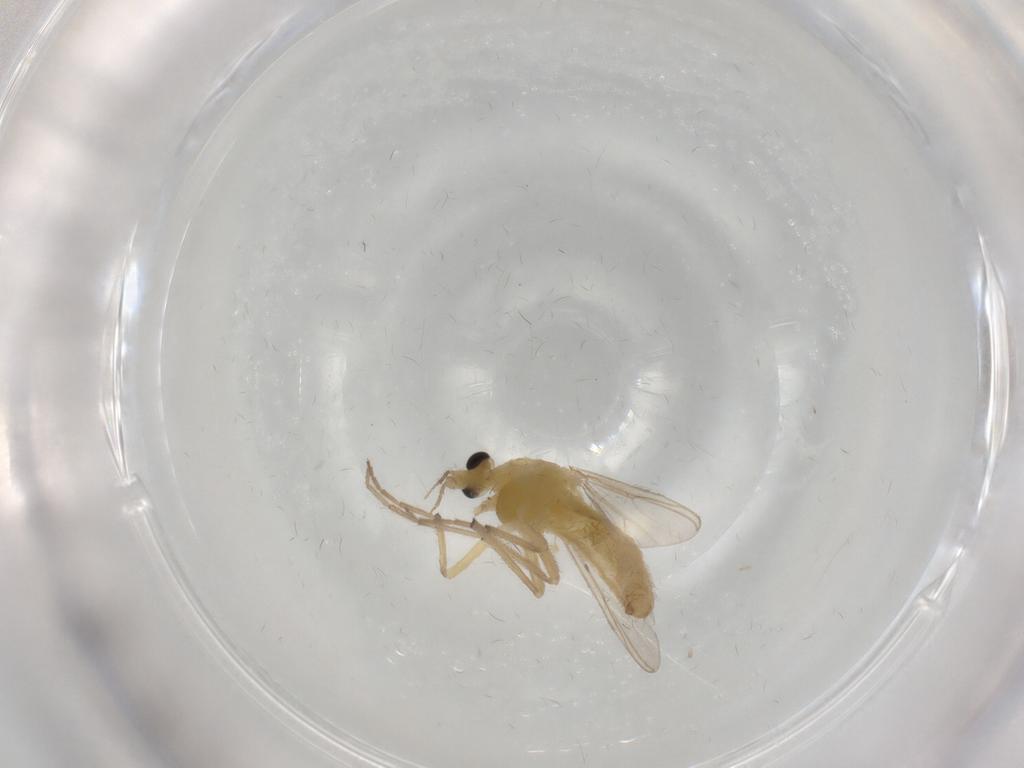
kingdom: Animalia
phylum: Arthropoda
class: Insecta
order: Diptera
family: Chironomidae
